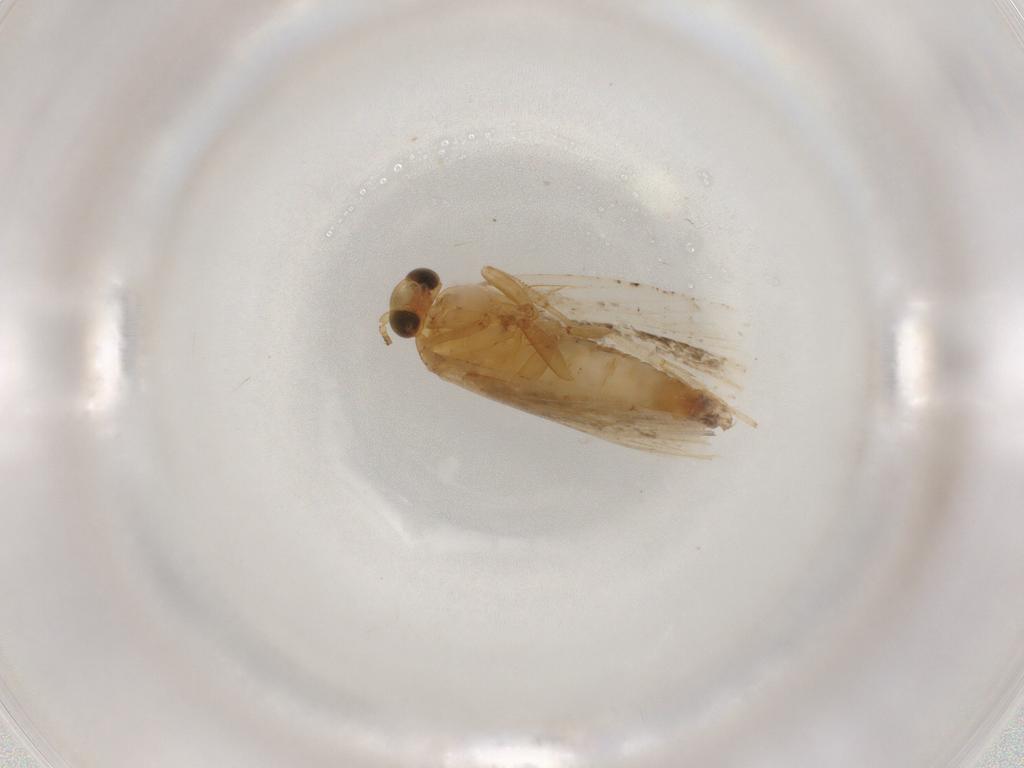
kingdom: Animalia
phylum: Arthropoda
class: Insecta
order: Lepidoptera
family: Tortricidae
